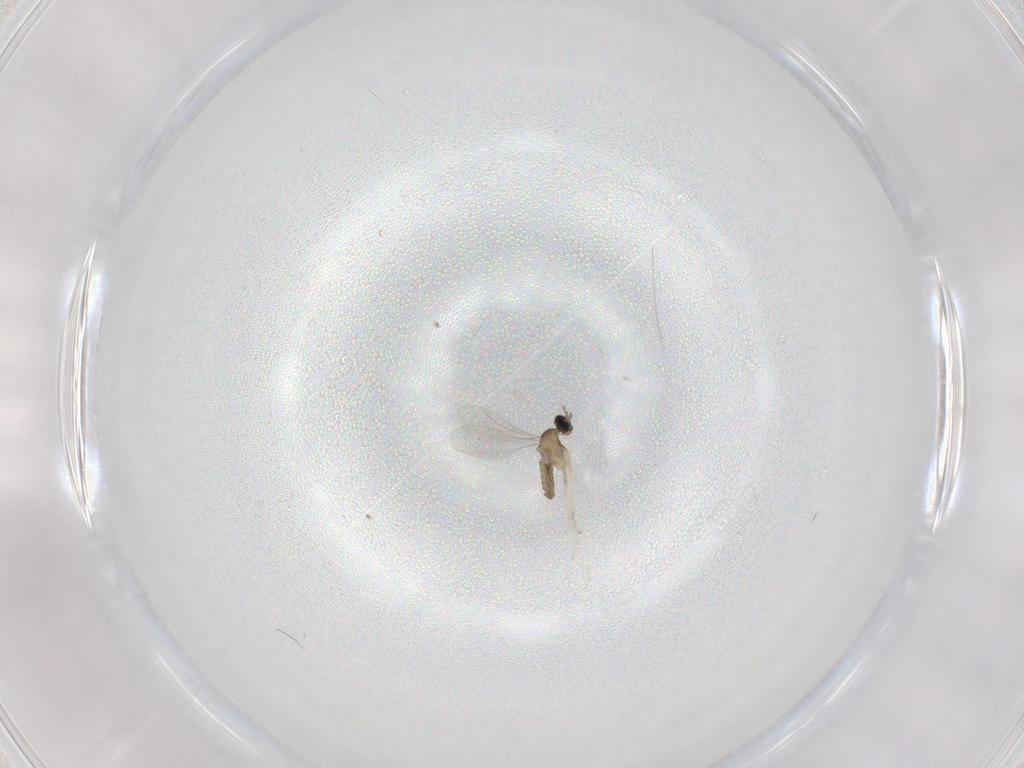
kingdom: Animalia
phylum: Arthropoda
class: Insecta
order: Diptera
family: Cecidomyiidae
